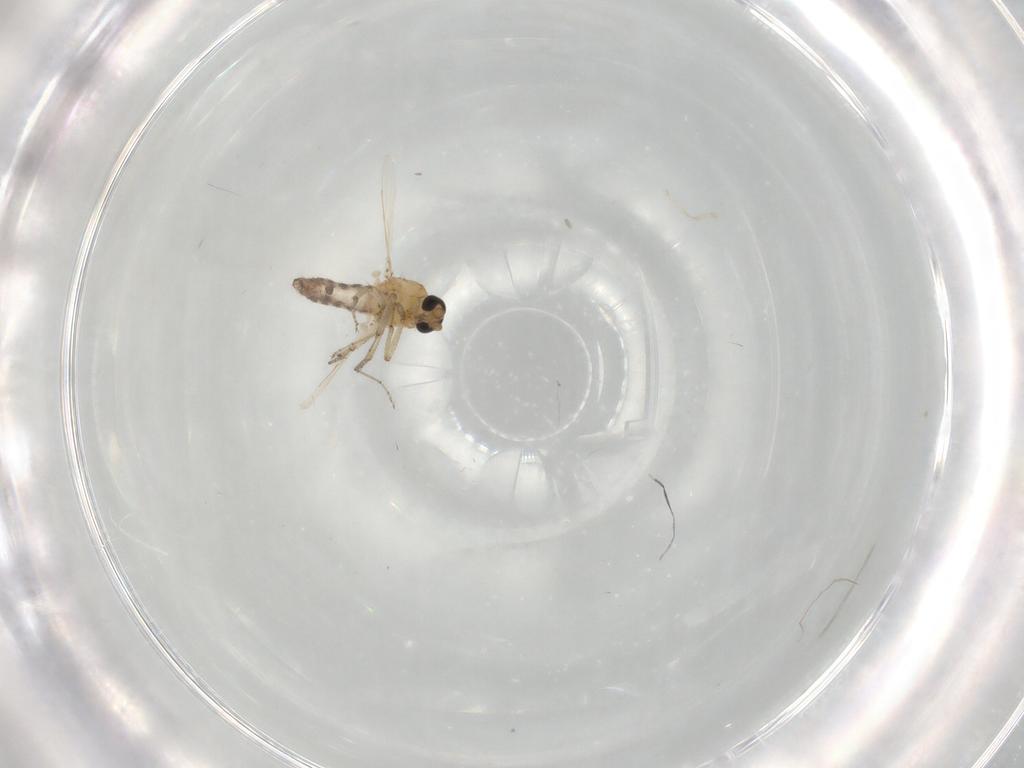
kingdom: Animalia
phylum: Arthropoda
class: Insecta
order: Diptera
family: Ceratopogonidae
